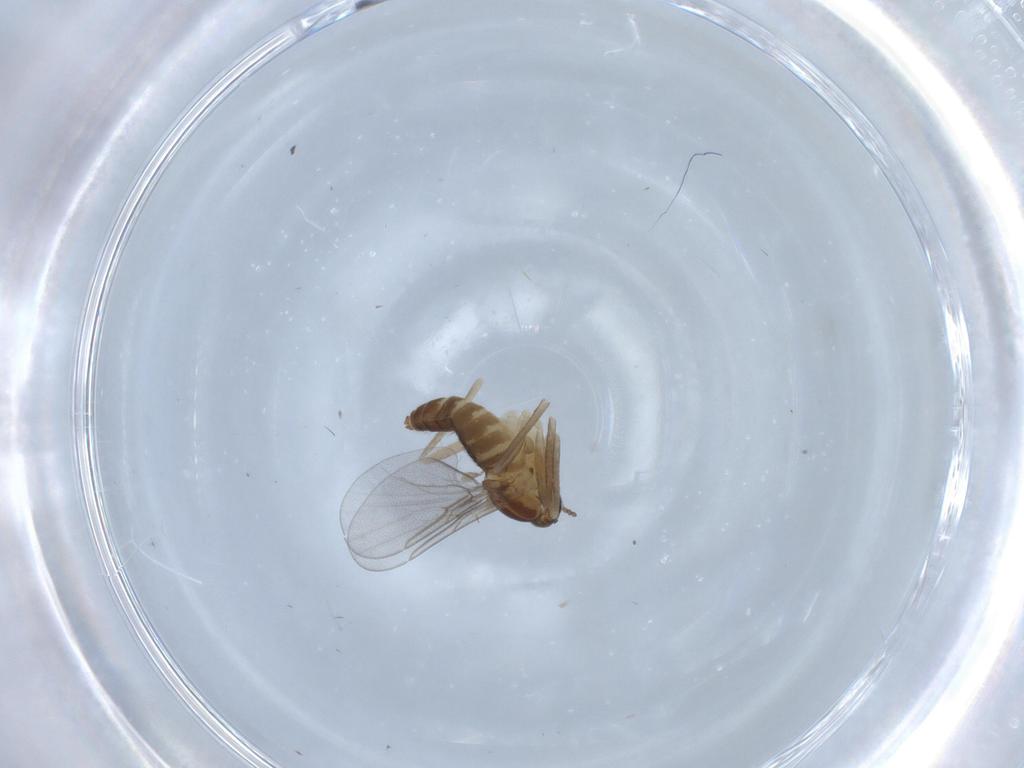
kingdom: Animalia
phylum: Arthropoda
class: Insecta
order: Diptera
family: Cecidomyiidae
